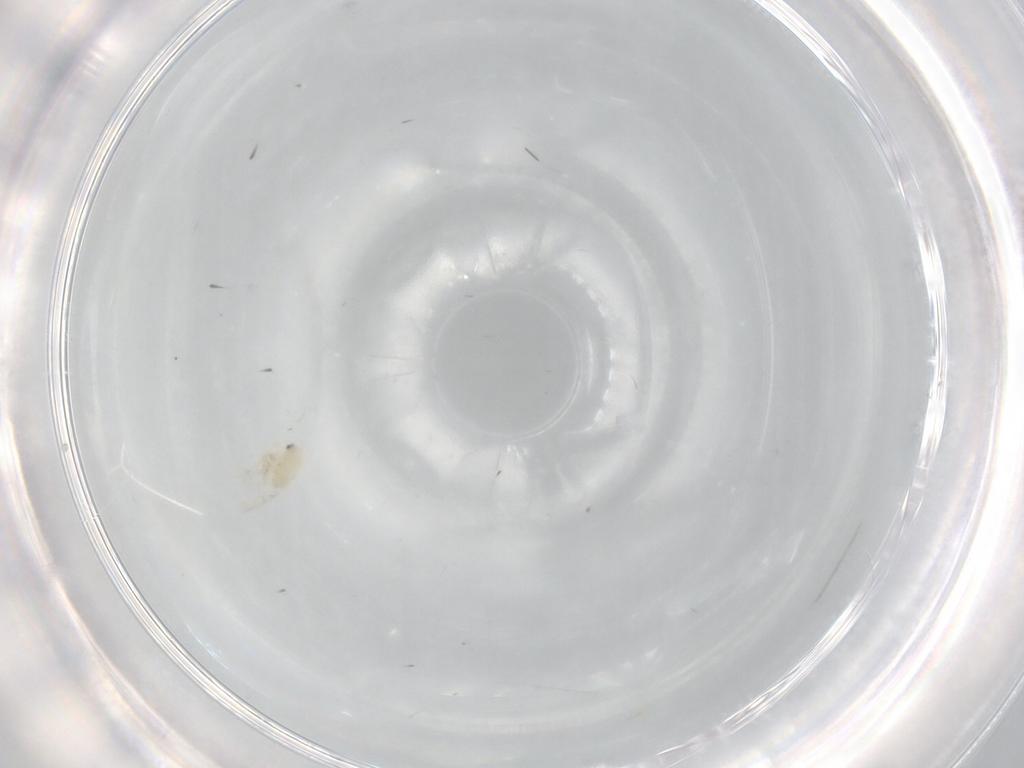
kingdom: Animalia
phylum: Arthropoda
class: Insecta
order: Hemiptera
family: Aleyrodidae
